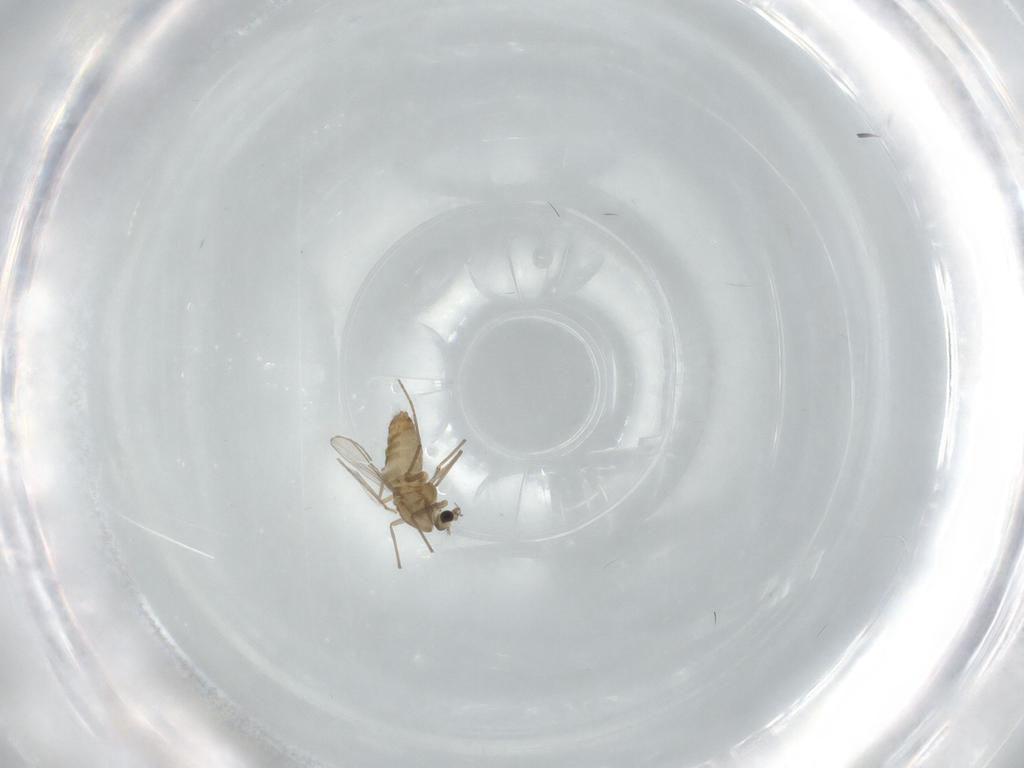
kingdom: Animalia
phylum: Arthropoda
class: Insecta
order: Diptera
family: Chironomidae
